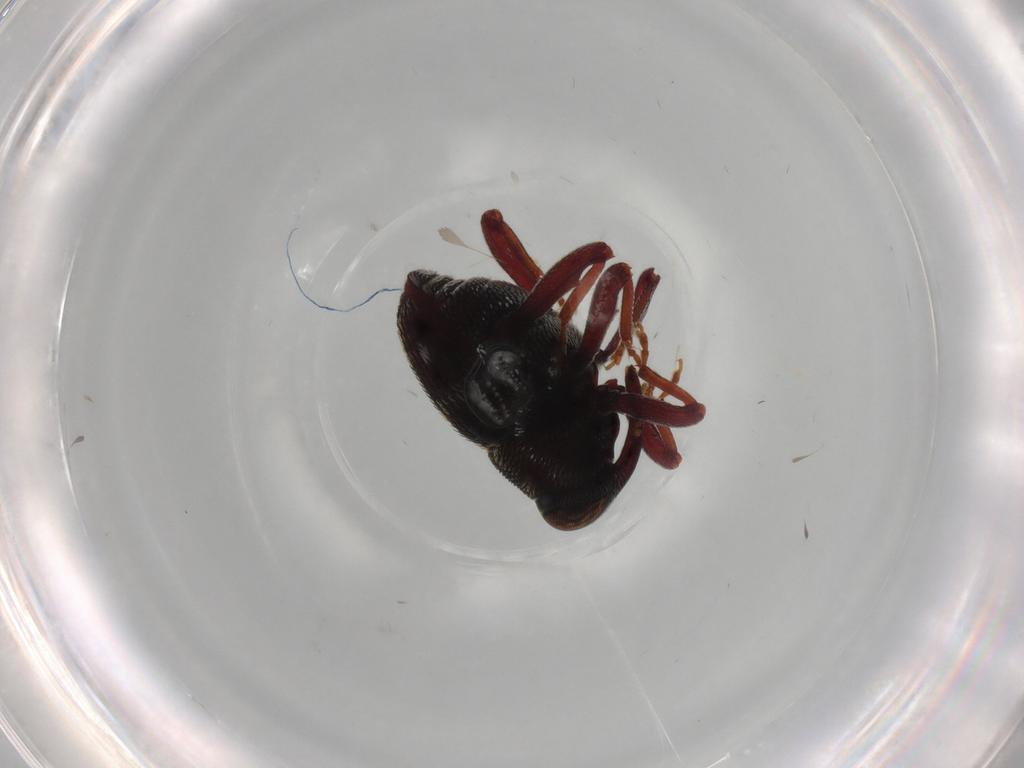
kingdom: Animalia
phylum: Arthropoda
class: Insecta
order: Coleoptera
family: Curculionidae
